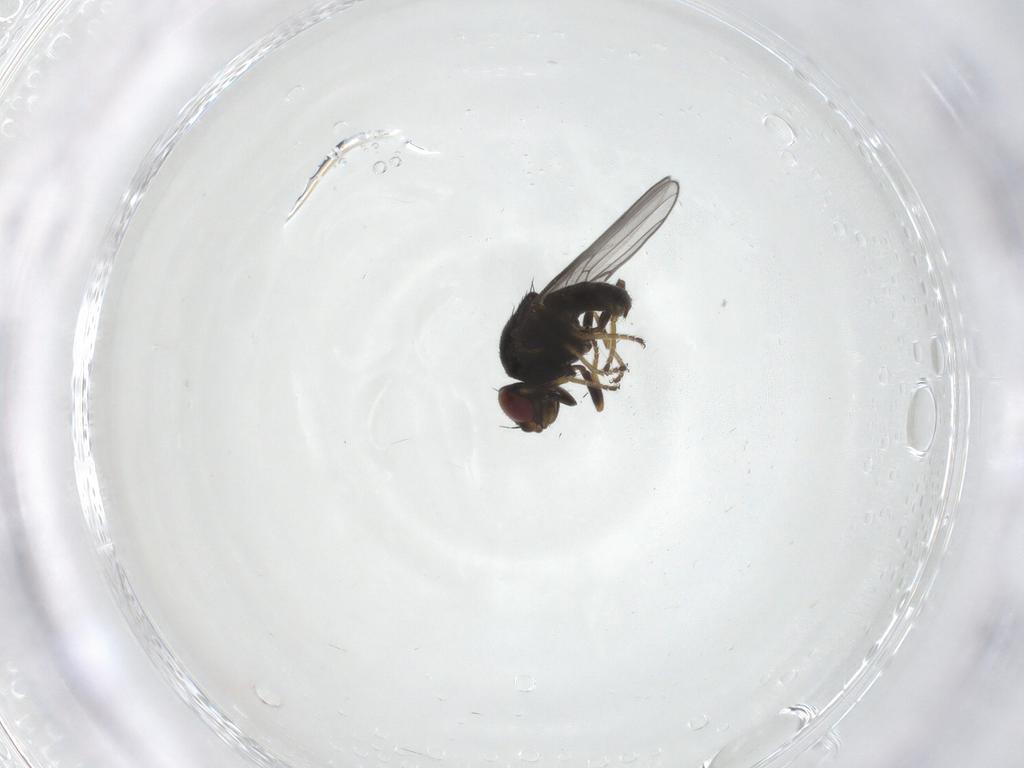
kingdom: Animalia
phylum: Arthropoda
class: Insecta
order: Diptera
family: Chloropidae
